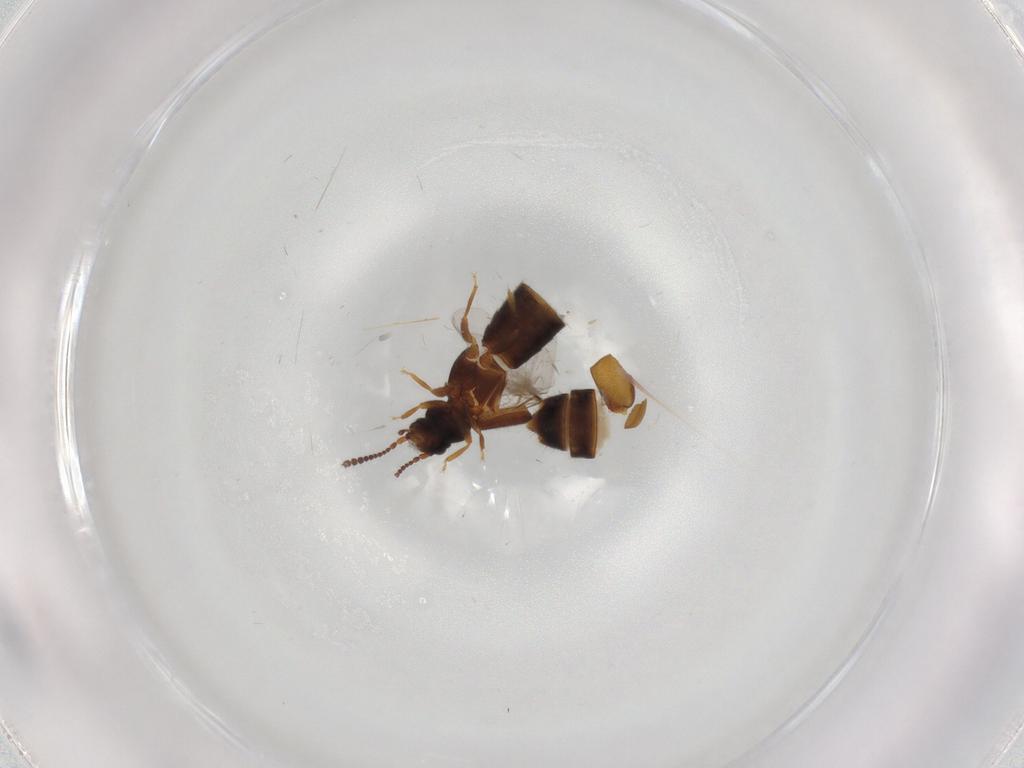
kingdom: Animalia
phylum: Arthropoda
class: Insecta
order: Coleoptera
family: Staphylinidae
